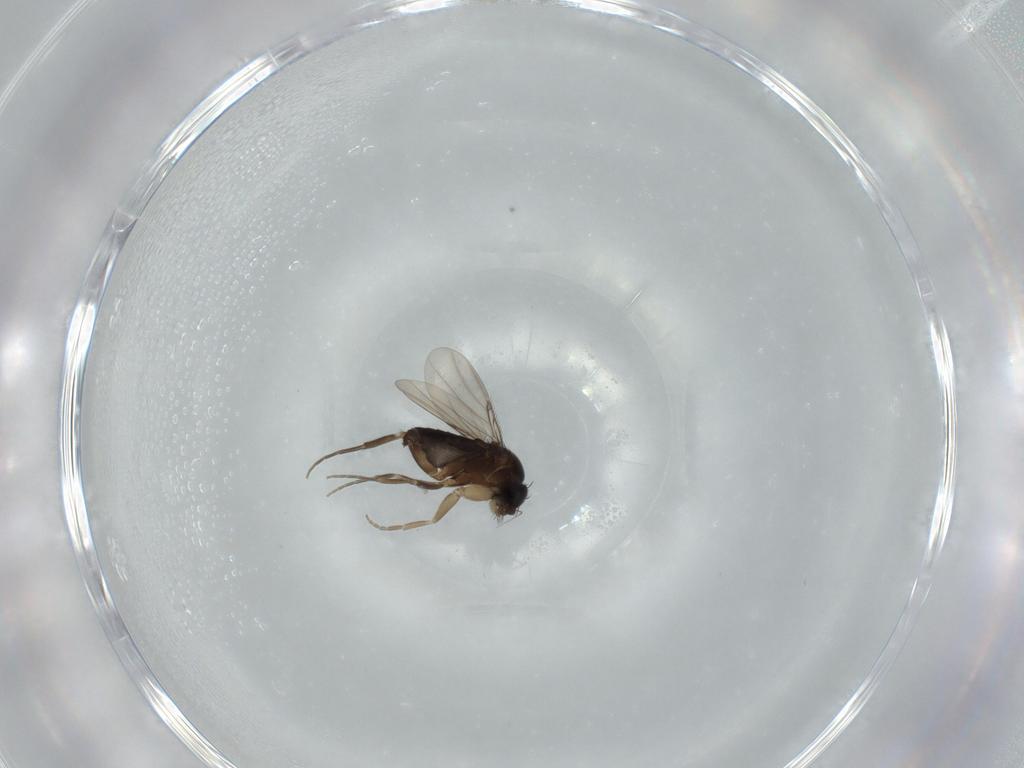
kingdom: Animalia
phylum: Arthropoda
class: Insecta
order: Diptera
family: Phoridae
